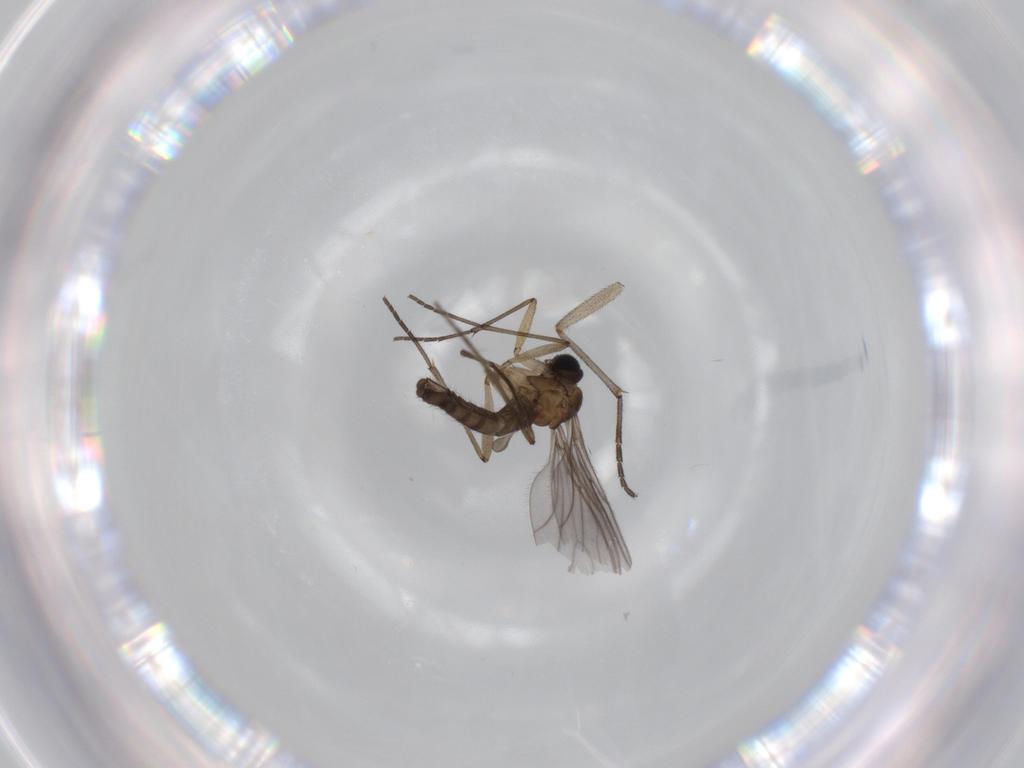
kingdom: Animalia
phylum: Arthropoda
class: Insecta
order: Diptera
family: Sciaridae
